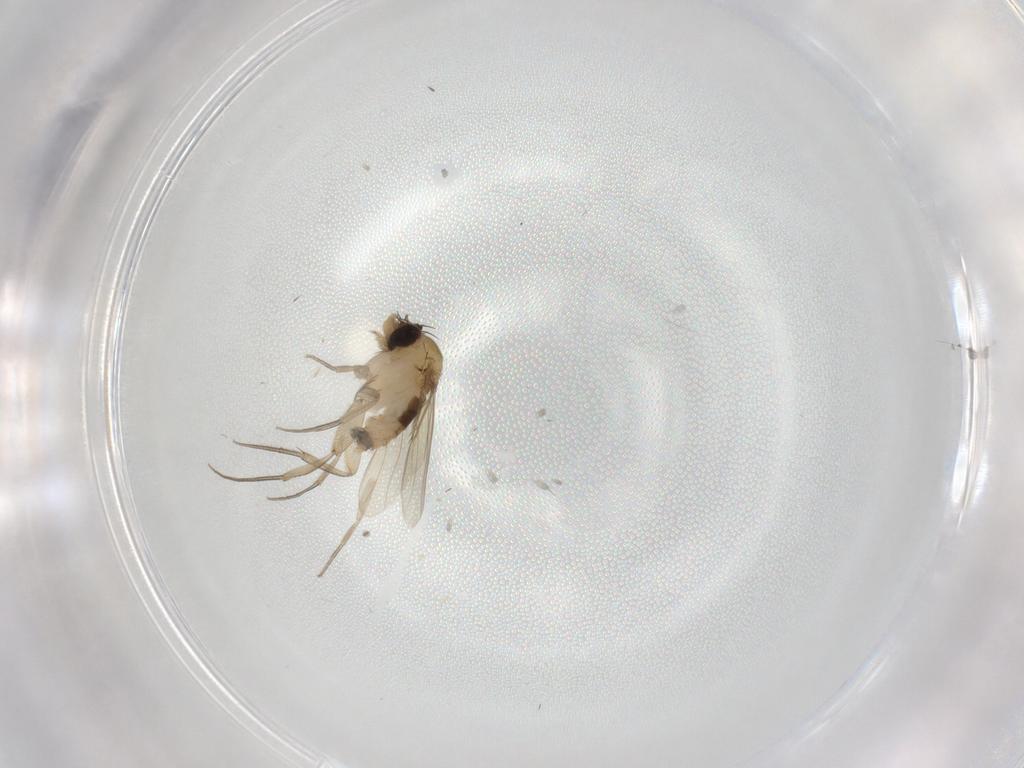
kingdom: Animalia
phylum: Arthropoda
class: Insecta
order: Diptera
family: Phoridae
